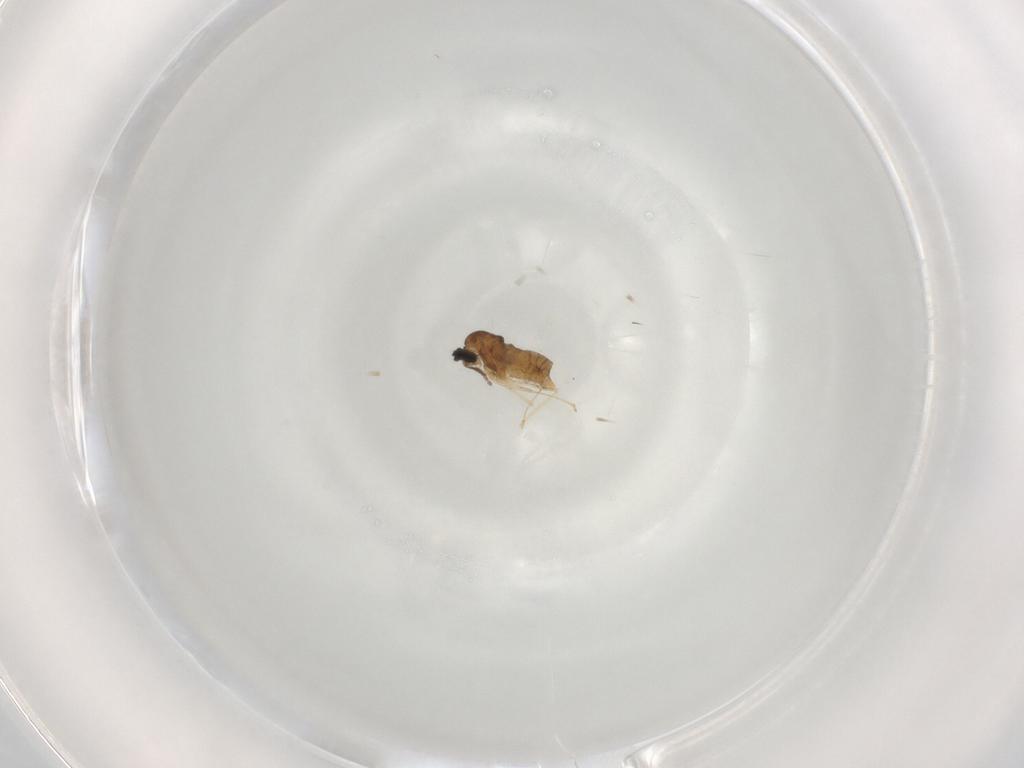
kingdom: Animalia
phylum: Arthropoda
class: Insecta
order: Diptera
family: Cecidomyiidae
